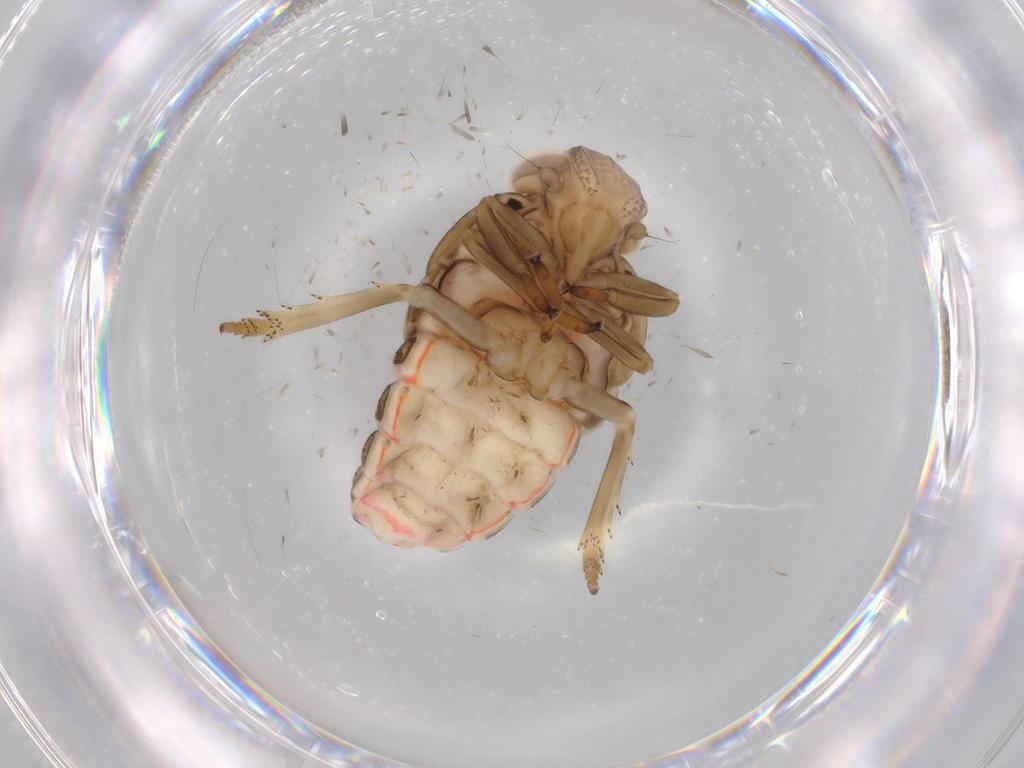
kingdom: Animalia
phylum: Arthropoda
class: Insecta
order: Hemiptera
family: Issidae
